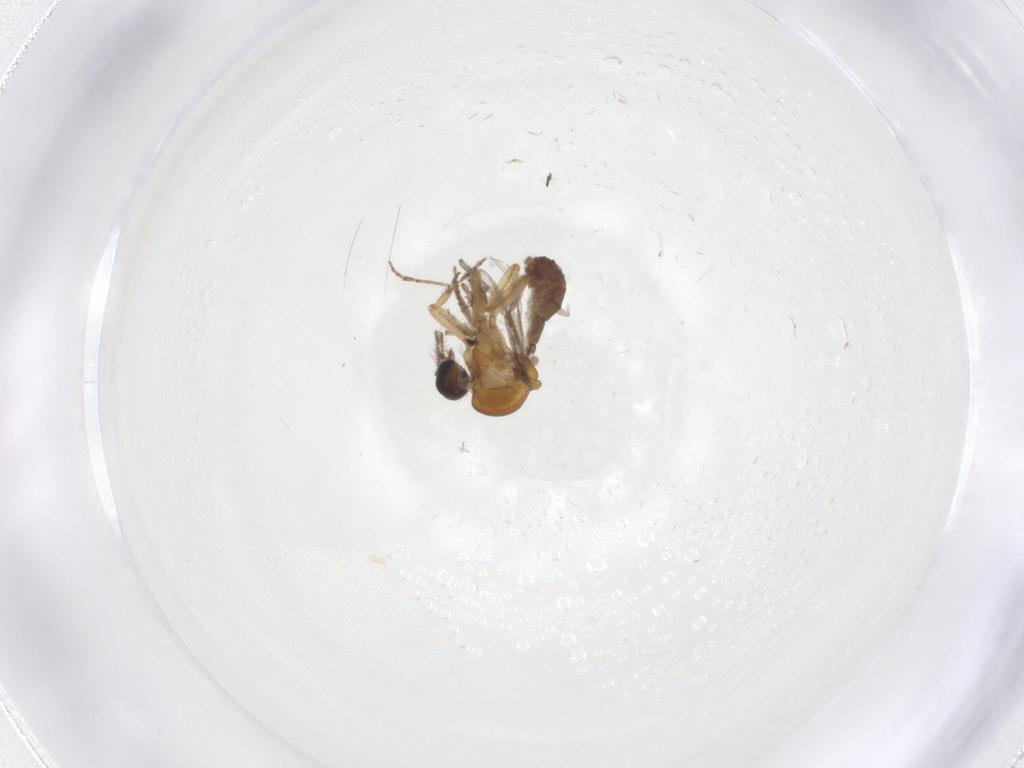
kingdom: Animalia
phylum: Arthropoda
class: Insecta
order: Diptera
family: Ceratopogonidae
